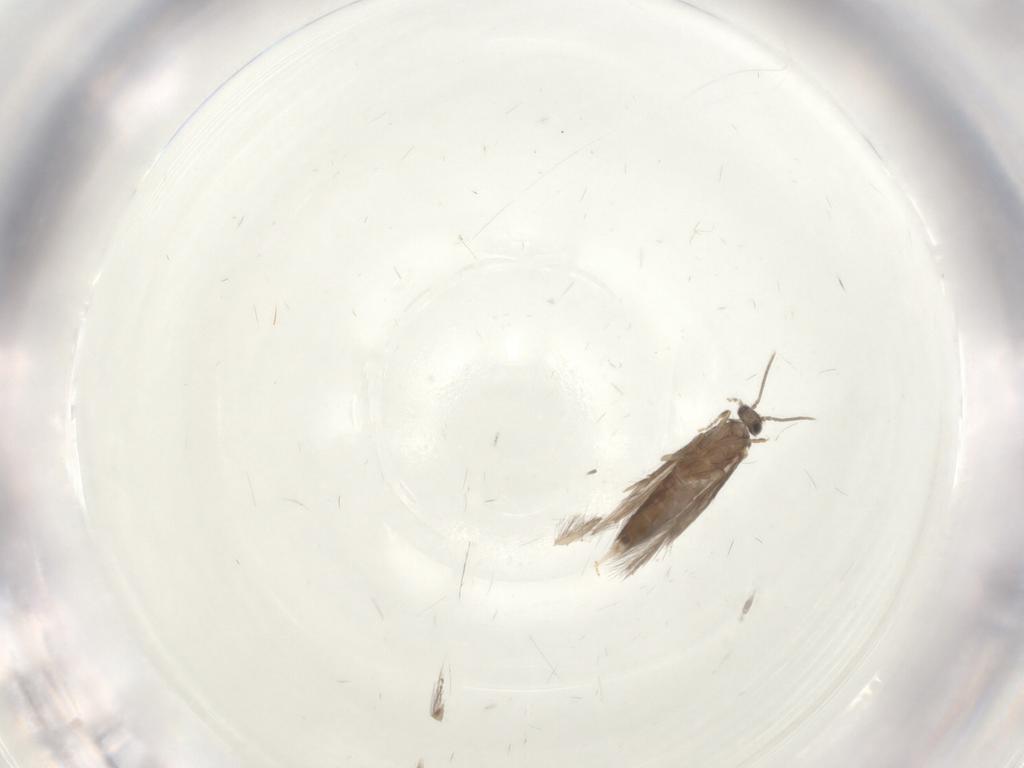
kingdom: Animalia
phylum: Arthropoda
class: Insecta
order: Trichoptera
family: Hydroptilidae
